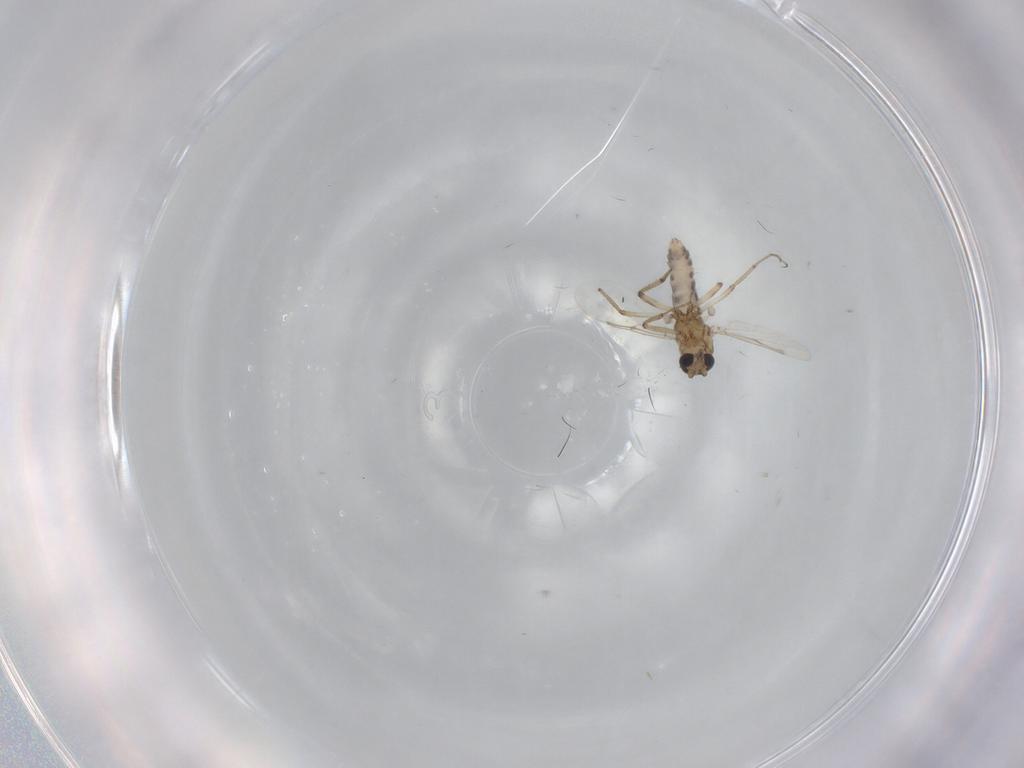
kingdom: Animalia
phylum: Arthropoda
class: Insecta
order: Diptera
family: Ceratopogonidae
